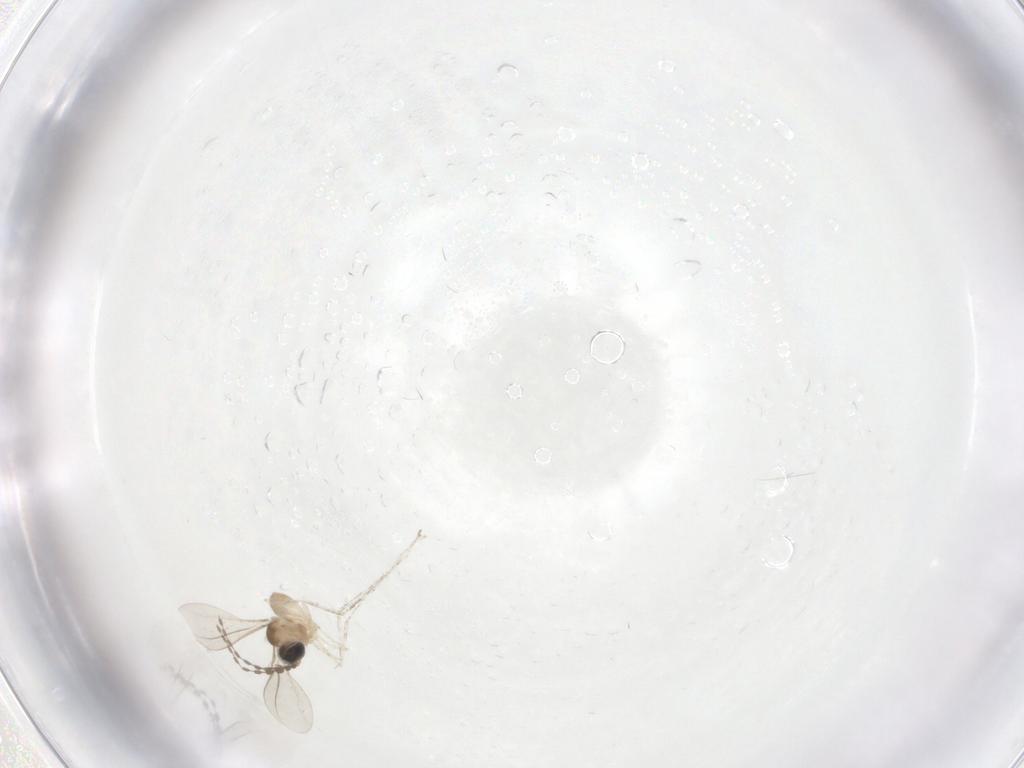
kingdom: Animalia
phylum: Arthropoda
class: Insecta
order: Diptera
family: Cecidomyiidae
